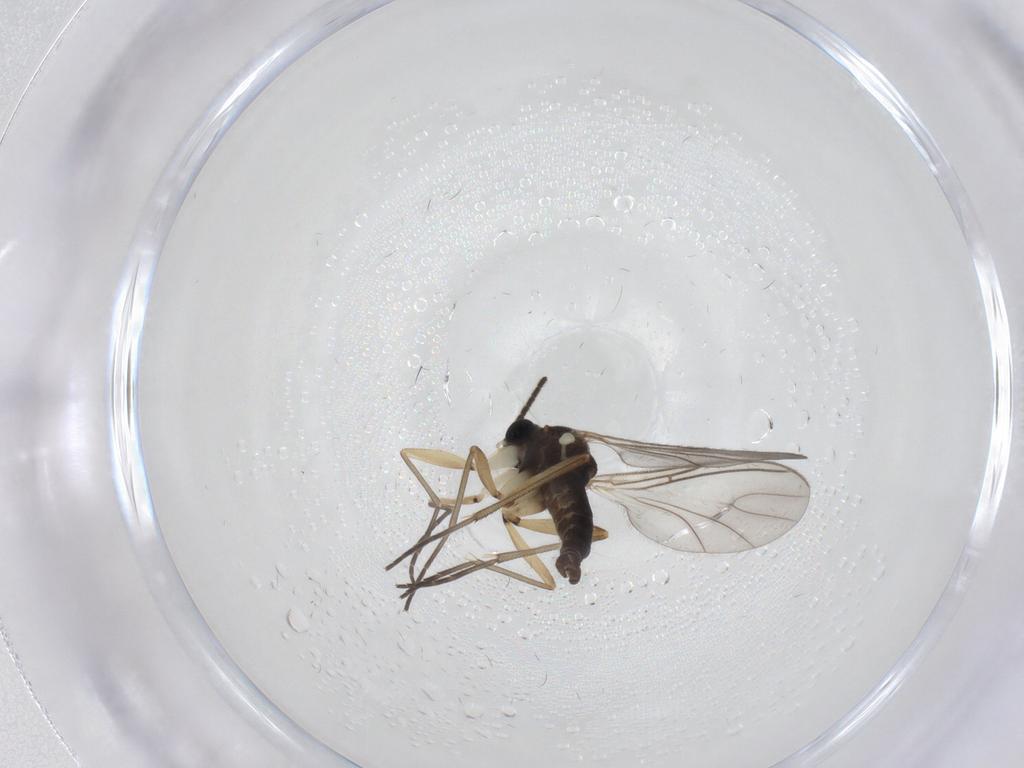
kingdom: Animalia
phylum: Arthropoda
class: Insecta
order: Diptera
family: Sciaridae
